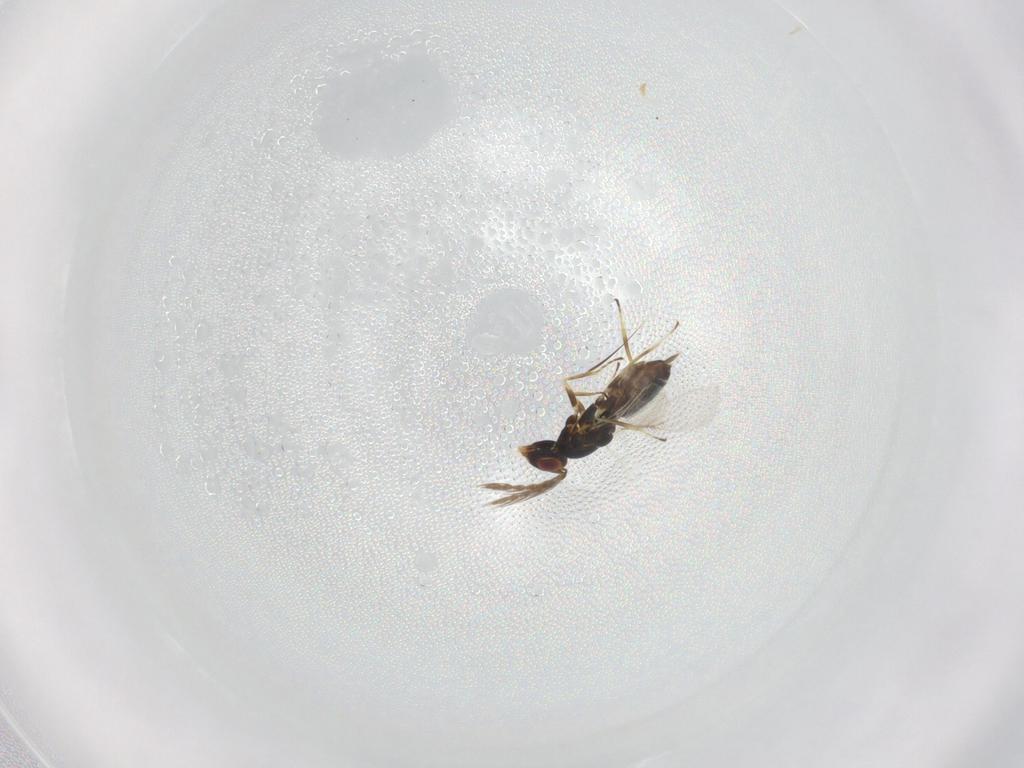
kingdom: Animalia
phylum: Arthropoda
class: Insecta
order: Hymenoptera
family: Eulophidae
